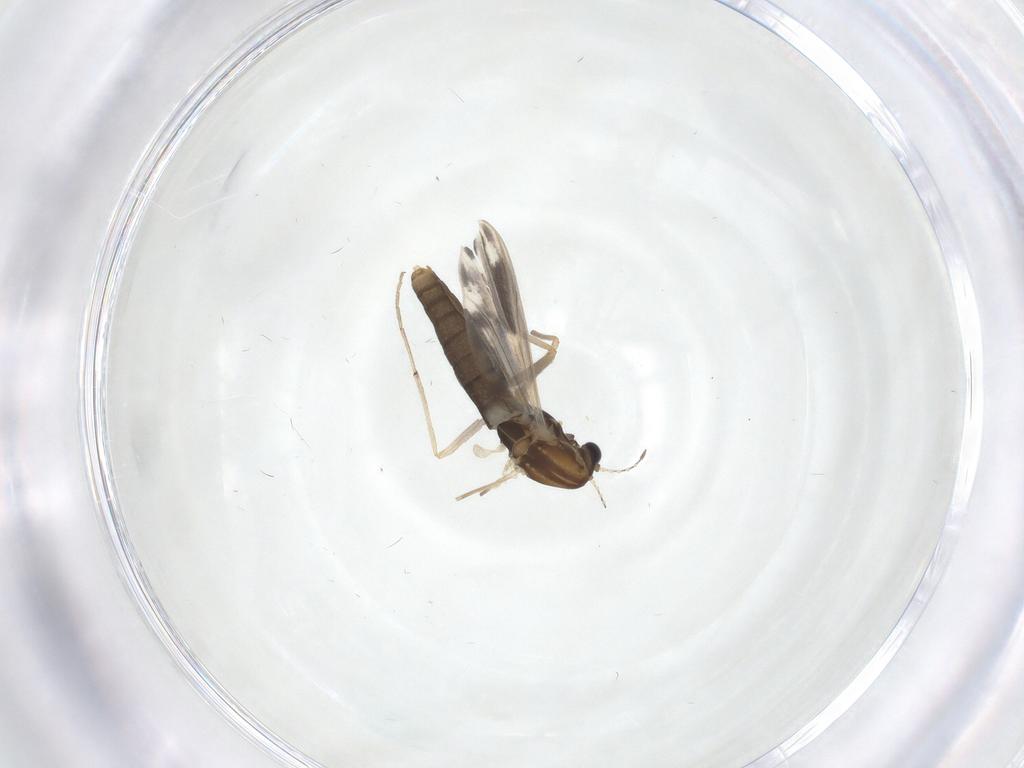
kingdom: Animalia
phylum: Arthropoda
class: Insecta
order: Diptera
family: Chironomidae
